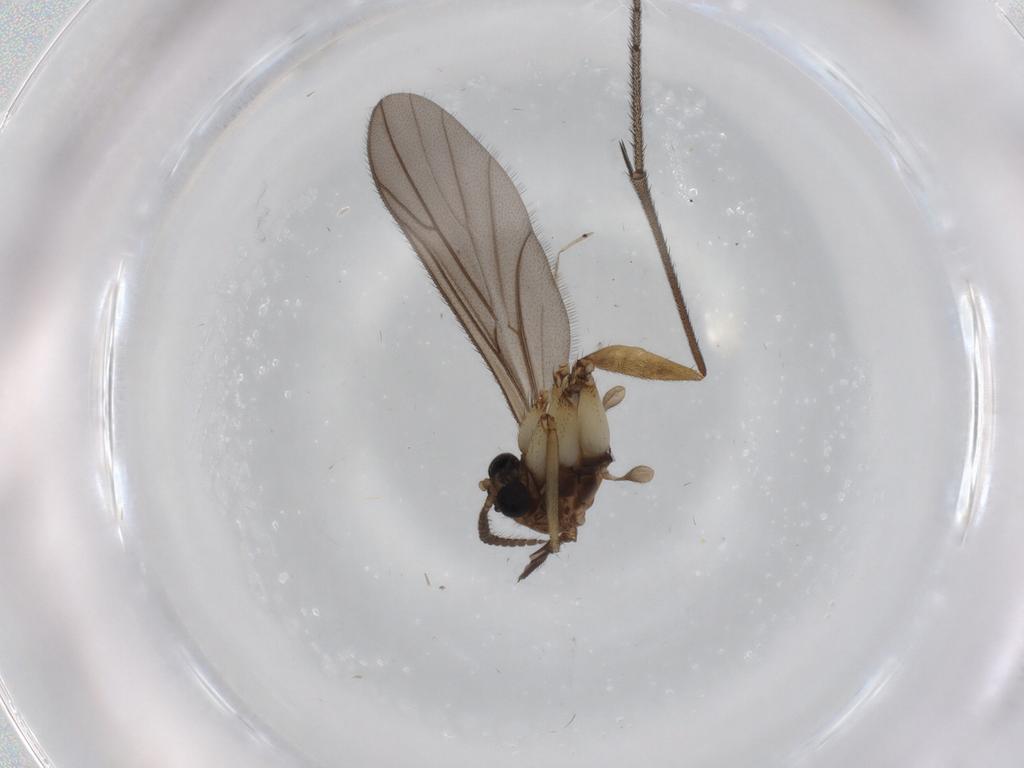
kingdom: Animalia
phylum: Arthropoda
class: Insecta
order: Diptera
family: Ditomyiidae
